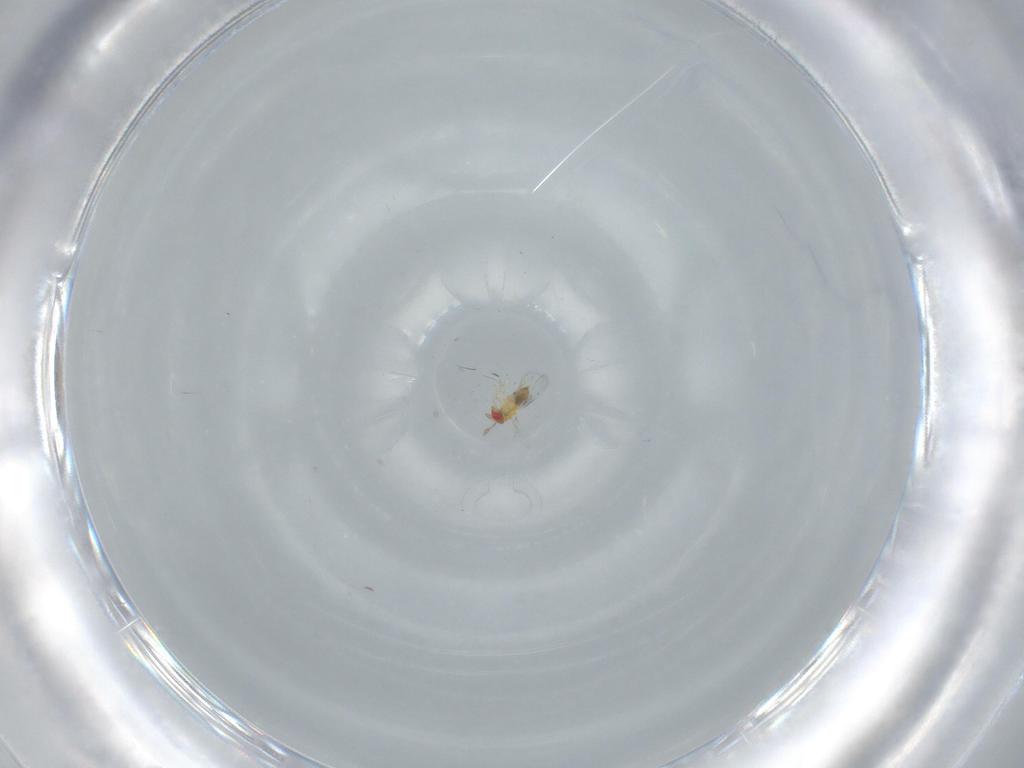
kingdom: Animalia
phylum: Arthropoda
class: Insecta
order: Hymenoptera
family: Trichogrammatidae
